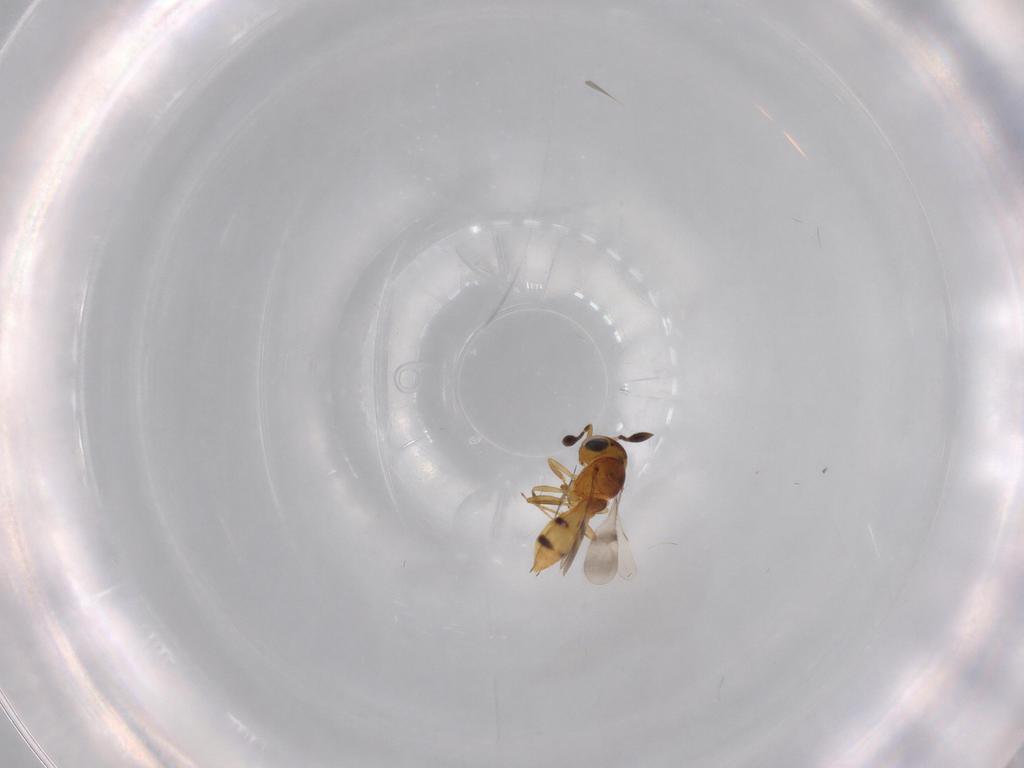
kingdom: Animalia
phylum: Arthropoda
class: Insecta
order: Hymenoptera
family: Scelionidae
